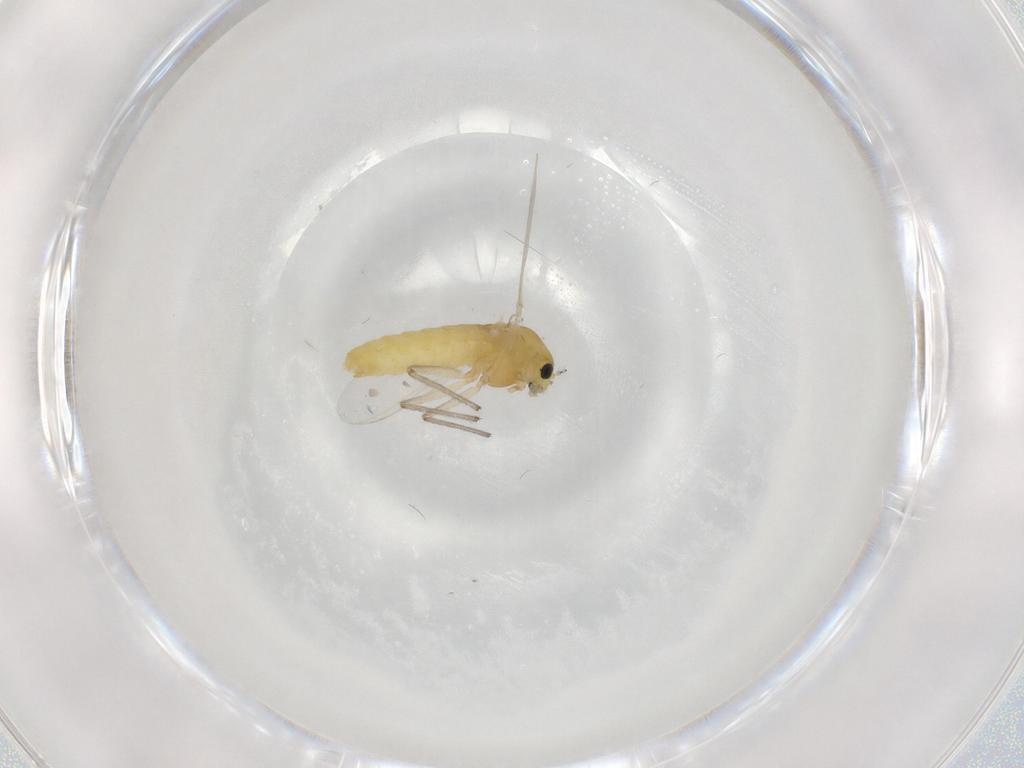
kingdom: Animalia
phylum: Arthropoda
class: Insecta
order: Diptera
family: Chironomidae
